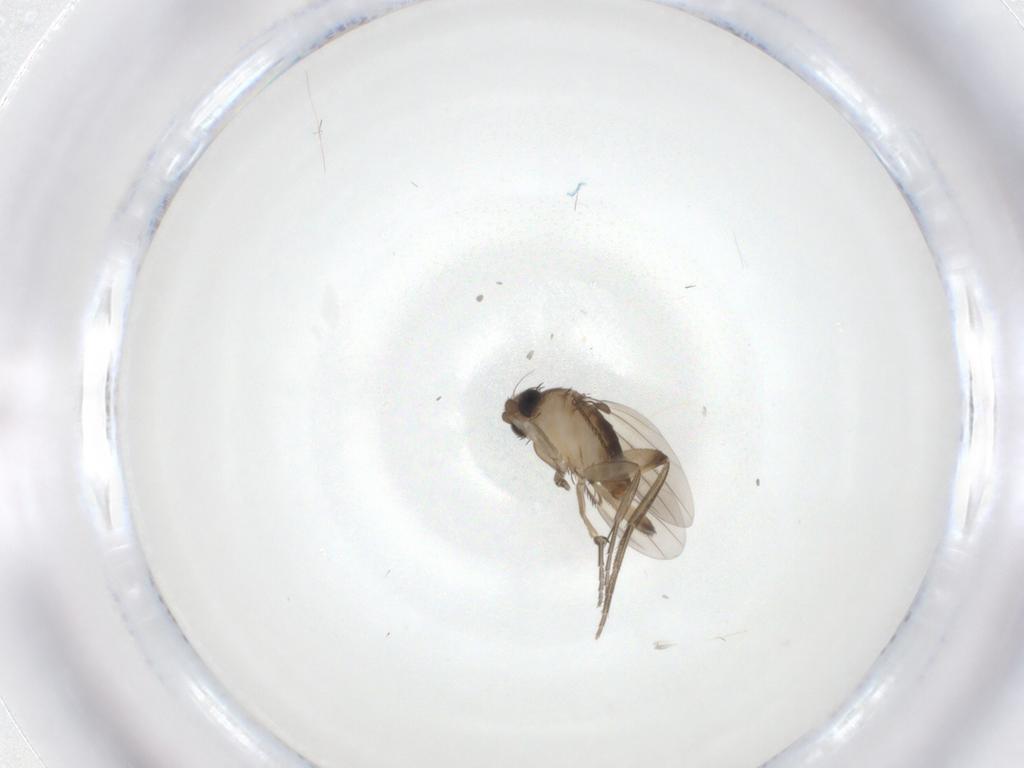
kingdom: Animalia
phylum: Arthropoda
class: Insecta
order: Diptera
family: Phoridae
